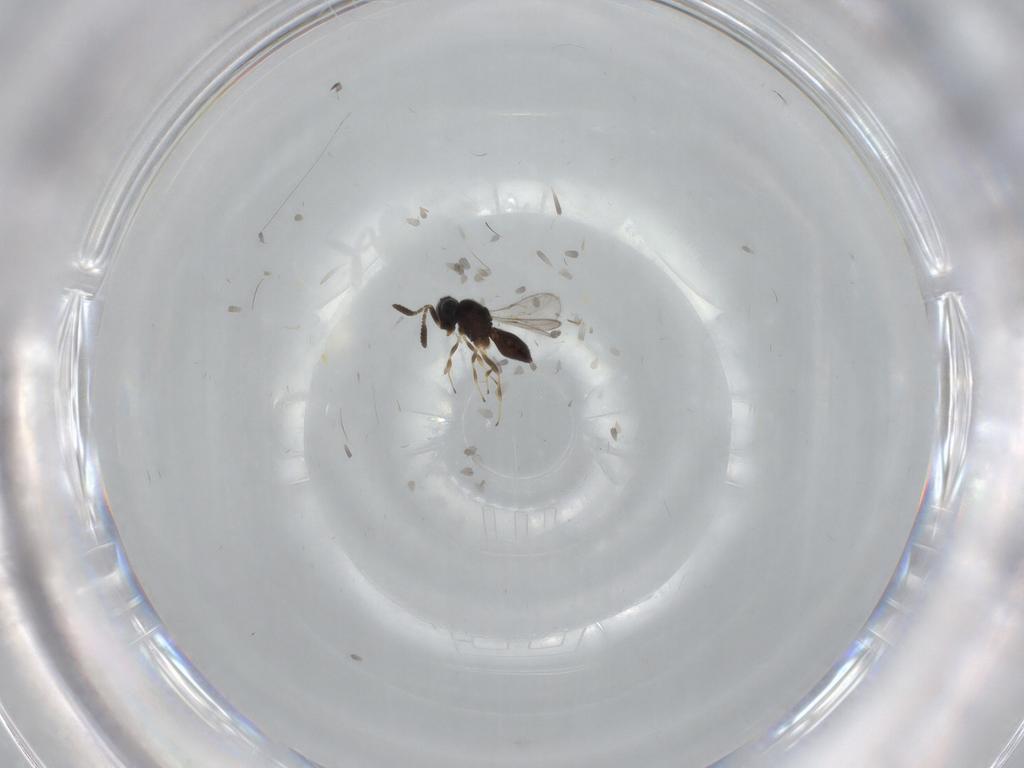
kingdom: Animalia
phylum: Arthropoda
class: Insecta
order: Hymenoptera
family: Scelionidae
